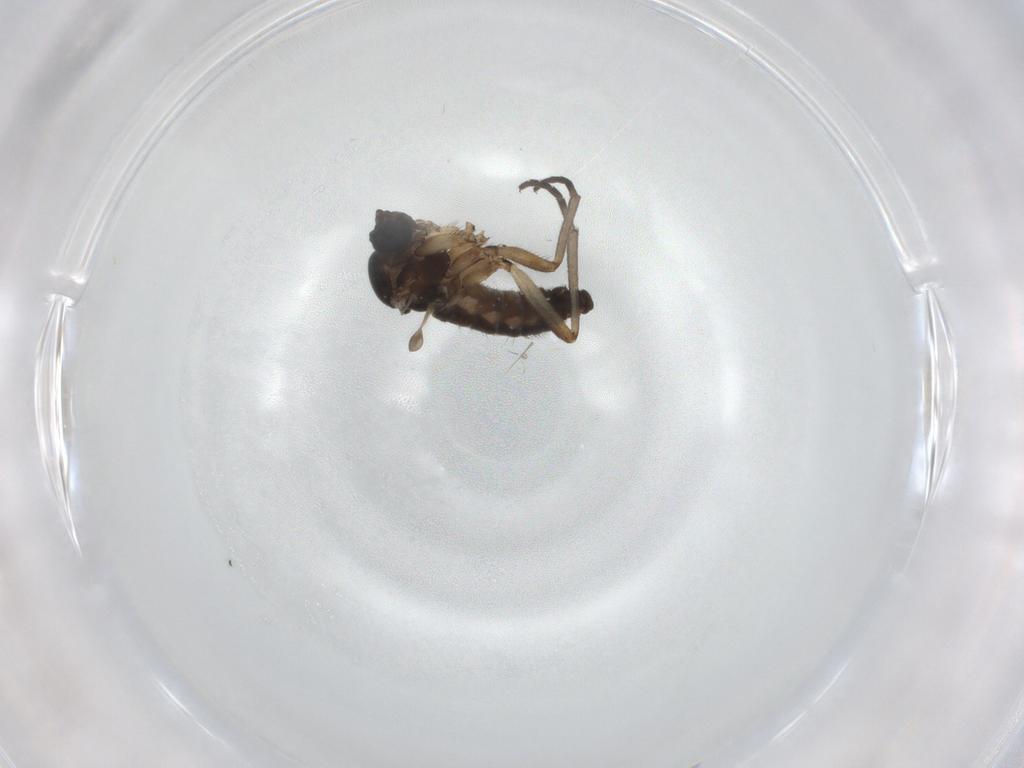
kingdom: Animalia
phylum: Arthropoda
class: Insecta
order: Diptera
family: Sciaridae
